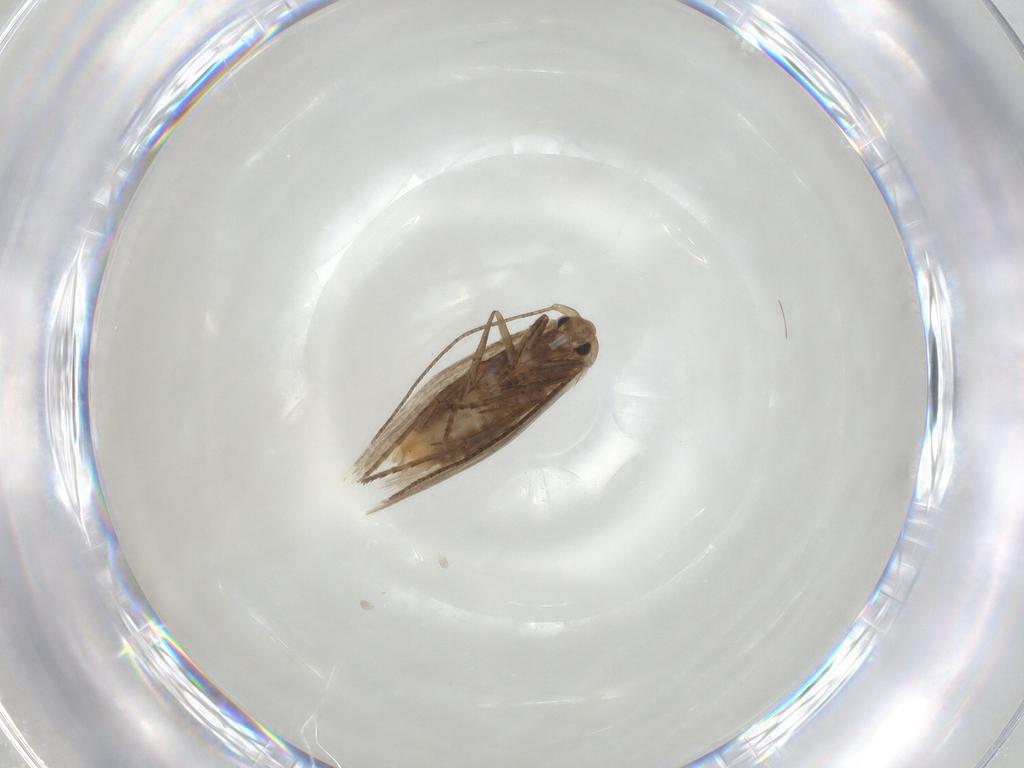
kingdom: Animalia
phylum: Arthropoda
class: Insecta
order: Lepidoptera
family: Bucculatricidae
